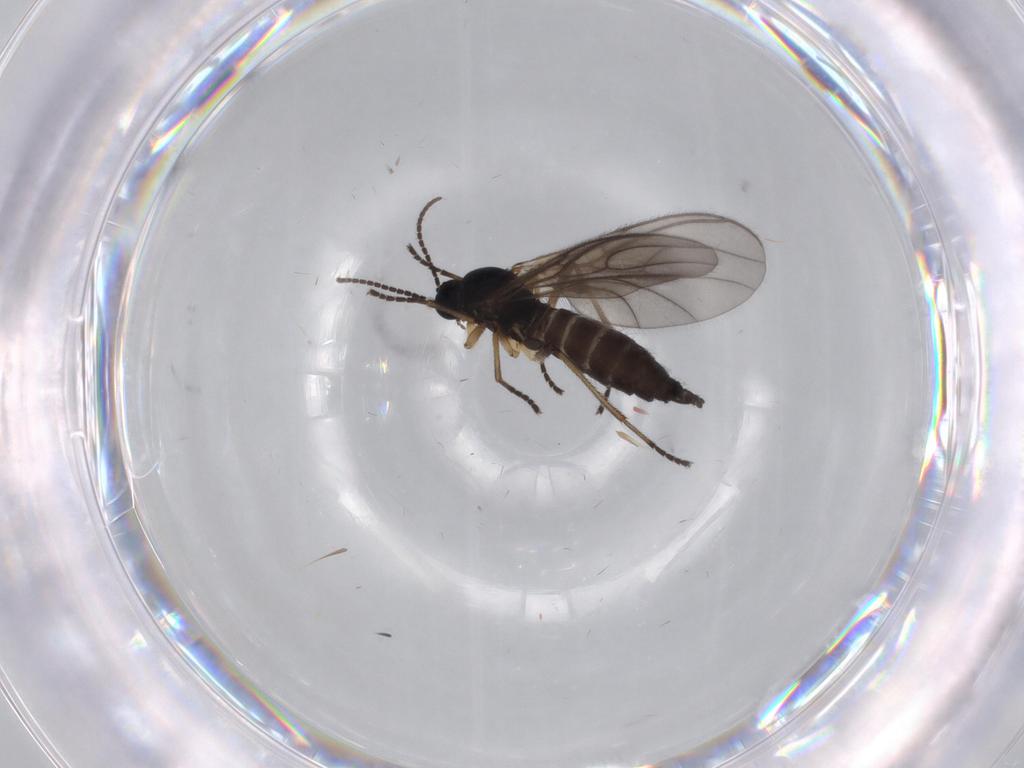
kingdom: Animalia
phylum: Arthropoda
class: Insecta
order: Diptera
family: Sciaridae
